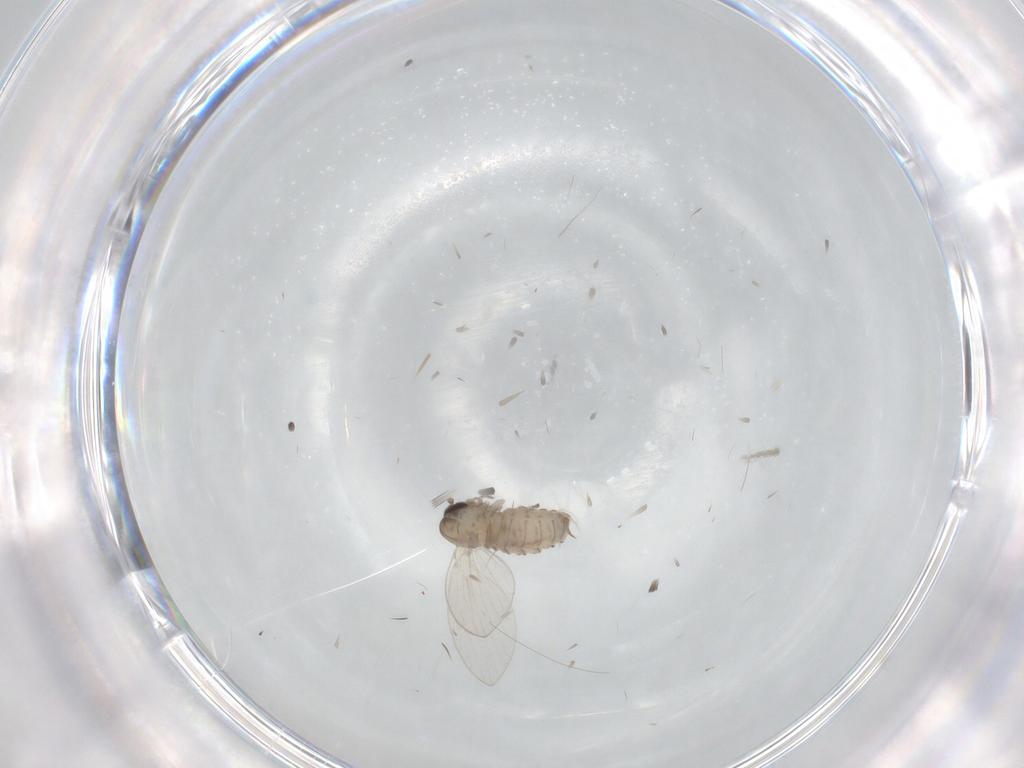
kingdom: Animalia
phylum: Arthropoda
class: Insecta
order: Diptera
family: Psychodidae
